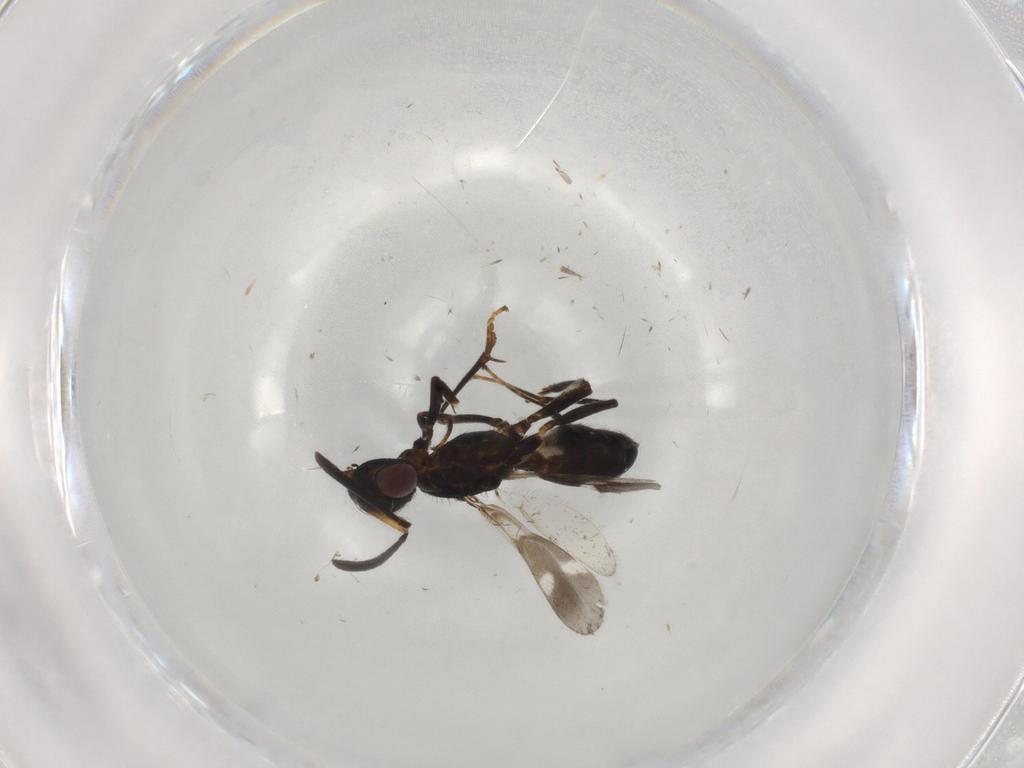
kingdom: Animalia
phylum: Arthropoda
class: Insecta
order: Hymenoptera
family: Eupelmidae
